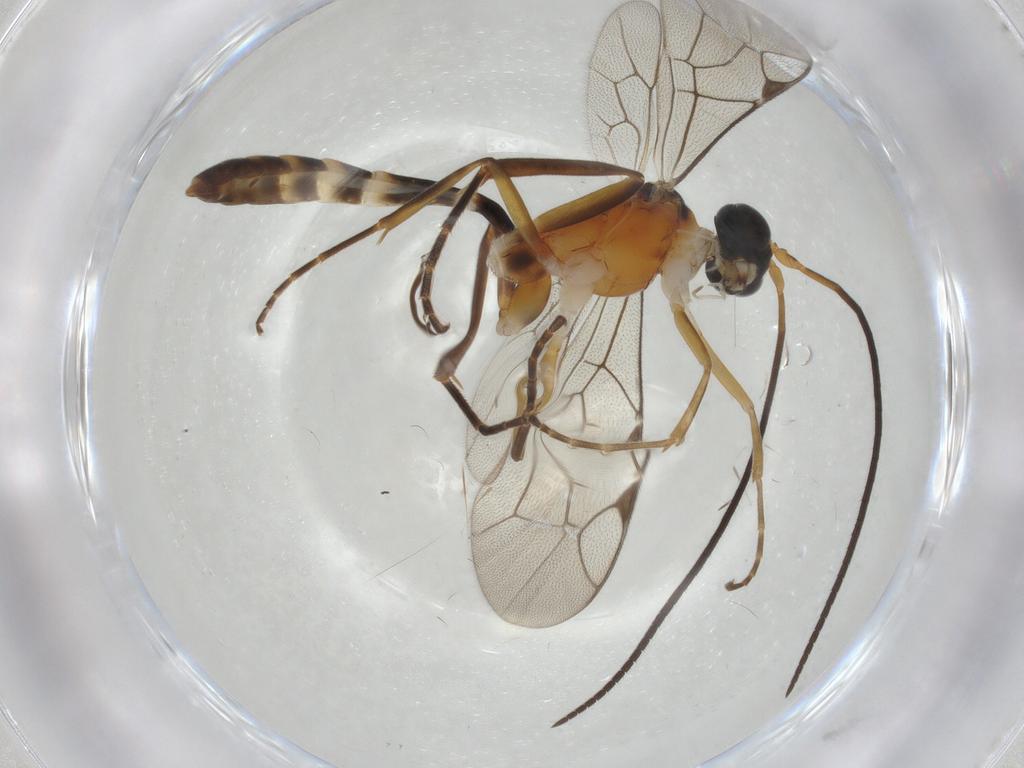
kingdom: Animalia
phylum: Arthropoda
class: Insecta
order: Hymenoptera
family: Ichneumonidae
